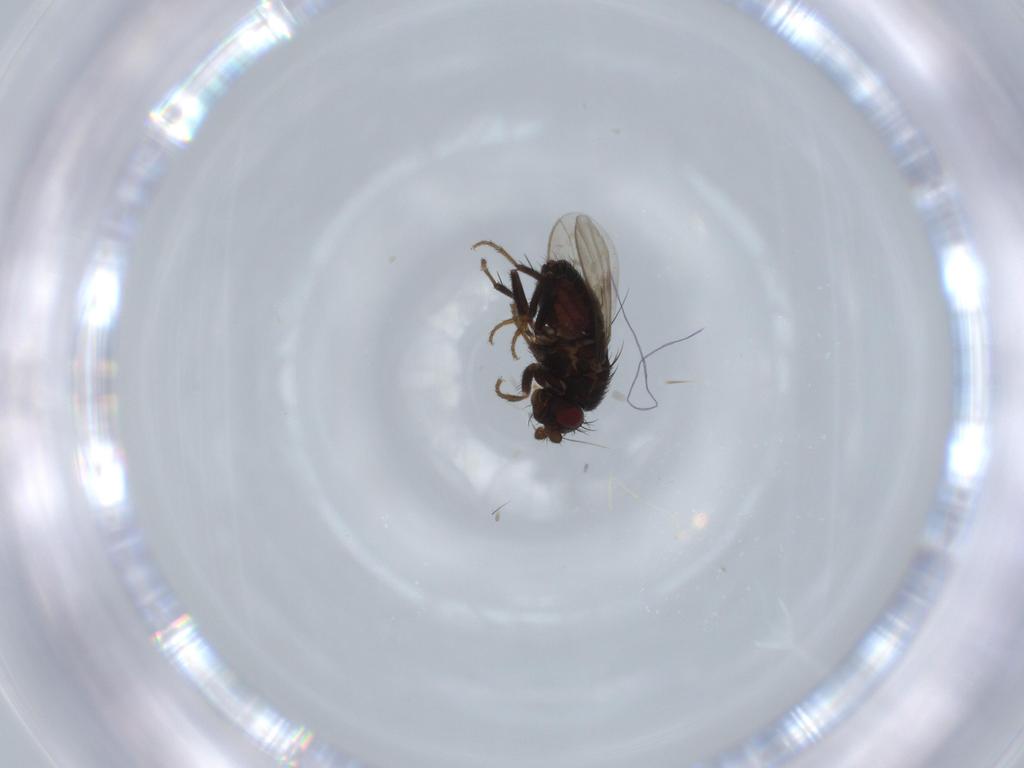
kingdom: Animalia
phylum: Arthropoda
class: Insecta
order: Diptera
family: Sphaeroceridae
